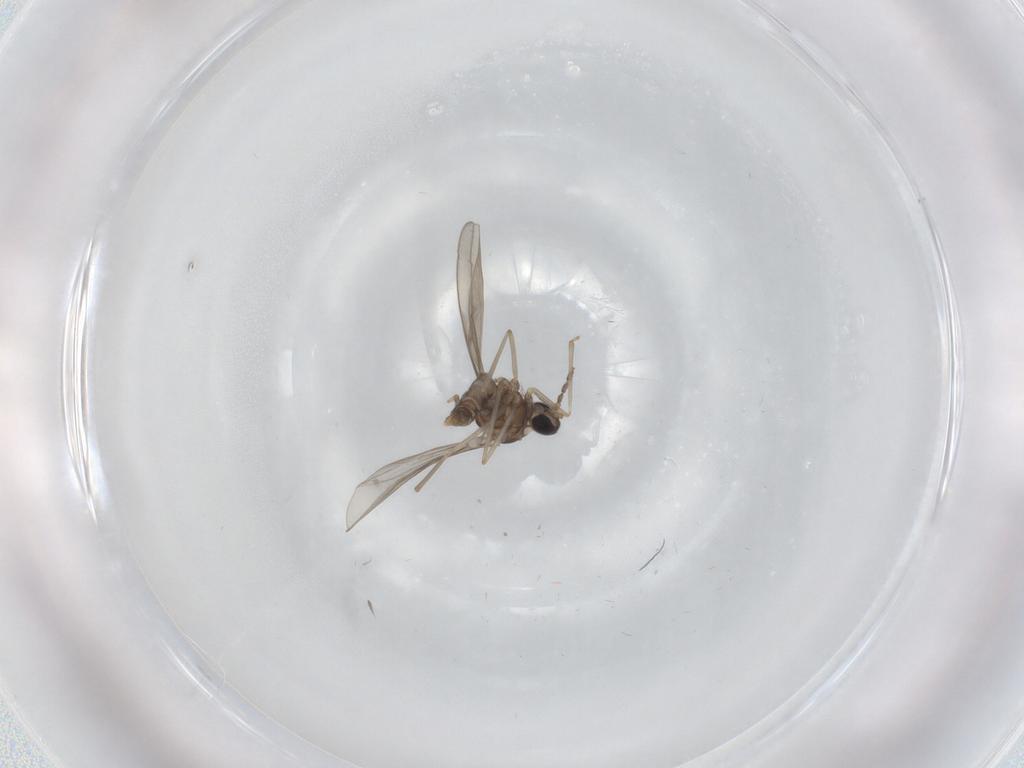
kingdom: Animalia
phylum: Arthropoda
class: Insecta
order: Diptera
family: Cecidomyiidae
